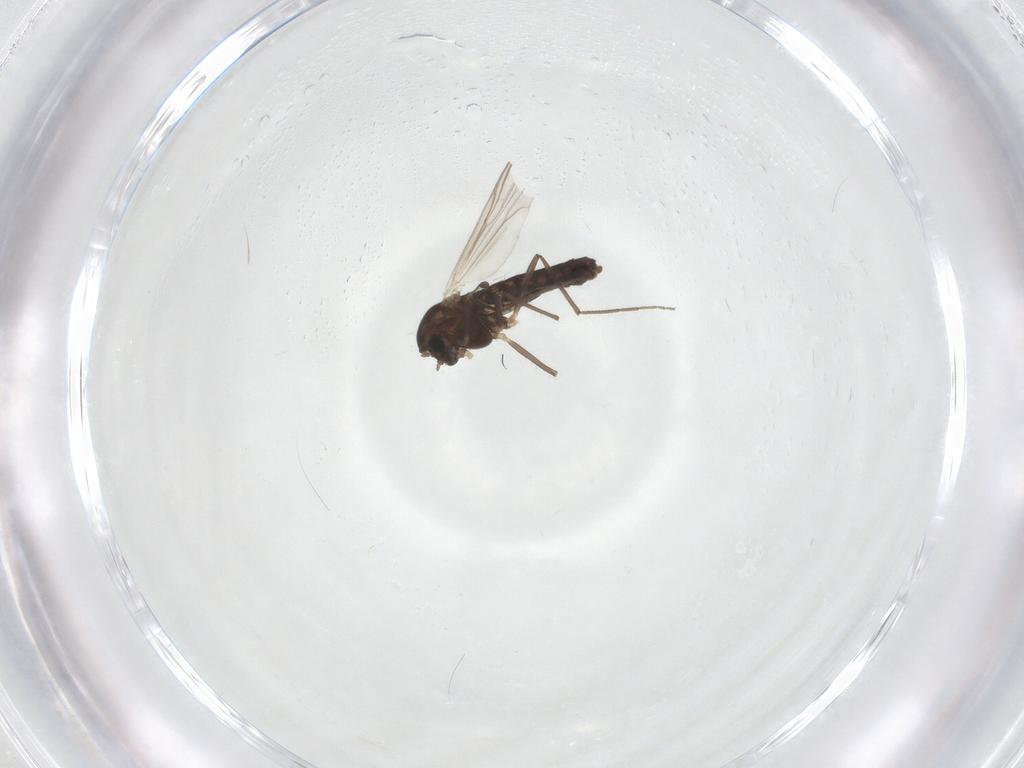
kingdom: Animalia
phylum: Arthropoda
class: Insecta
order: Diptera
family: Chironomidae
